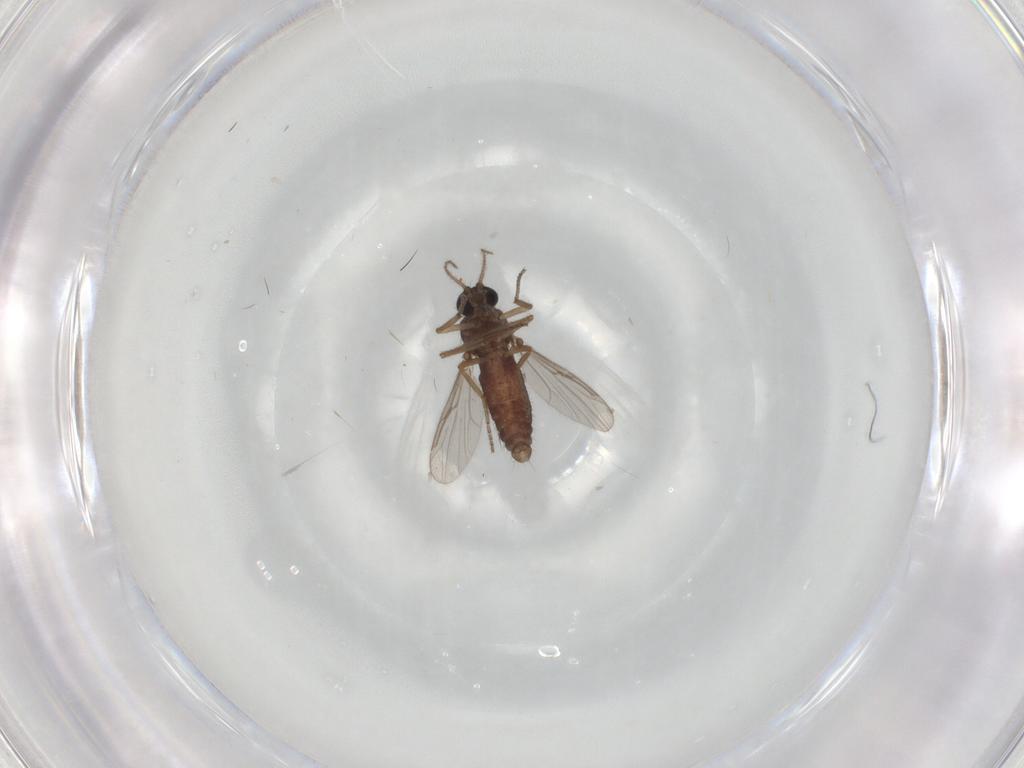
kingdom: Animalia
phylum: Arthropoda
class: Insecta
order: Diptera
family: Ceratopogonidae
